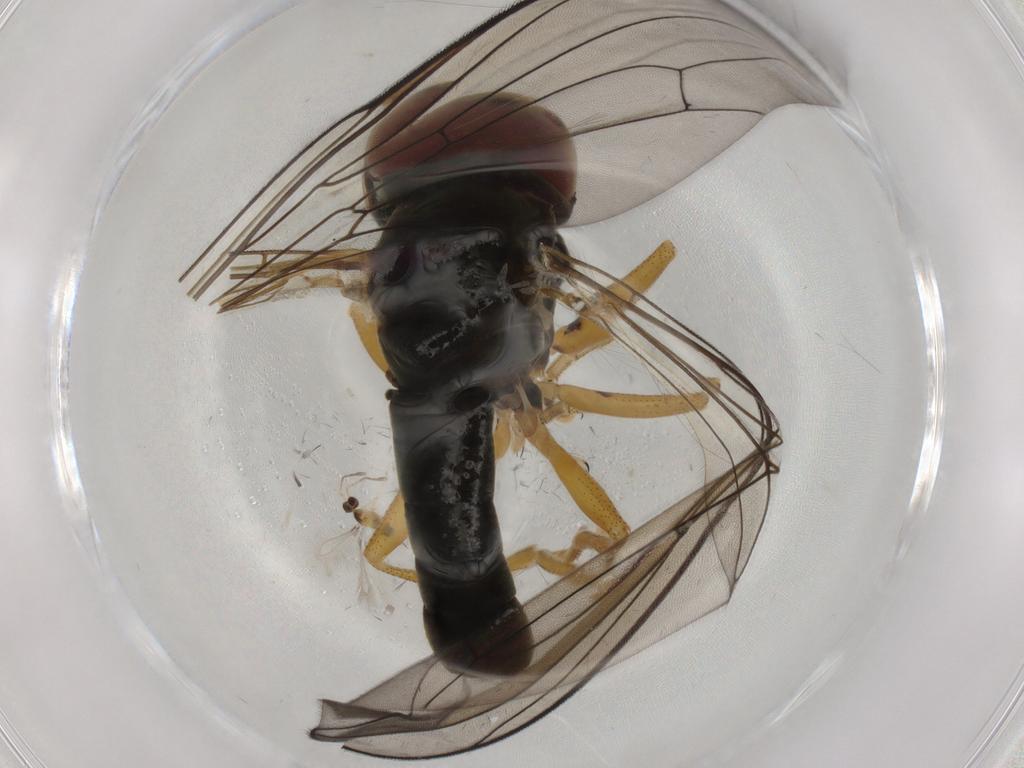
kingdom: Animalia
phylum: Arthropoda
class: Insecta
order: Diptera
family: Pipunculidae
